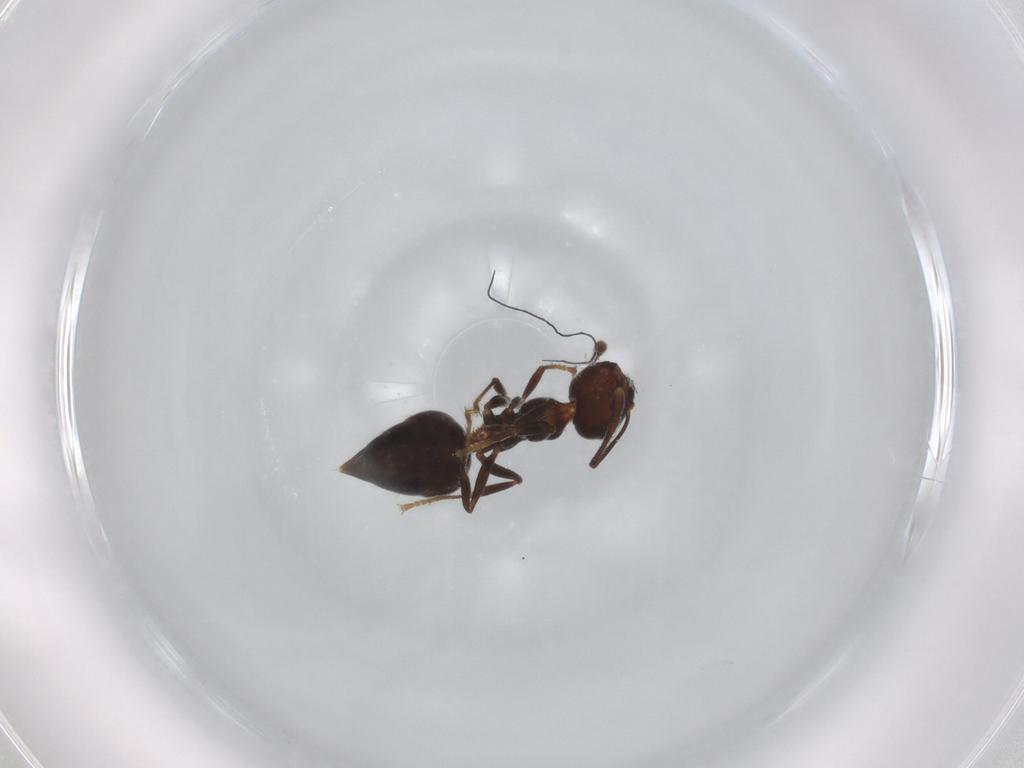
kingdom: Animalia
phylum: Arthropoda
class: Insecta
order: Hymenoptera
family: Pompilidae
